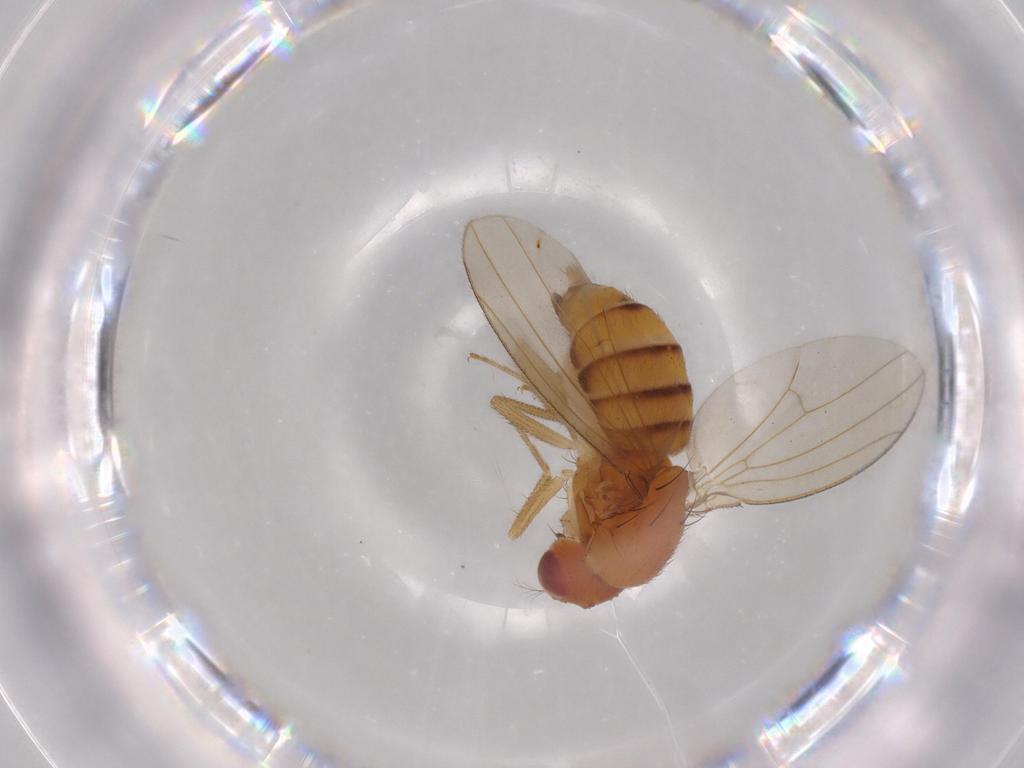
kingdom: Animalia
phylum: Arthropoda
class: Insecta
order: Diptera
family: Drosophilidae
